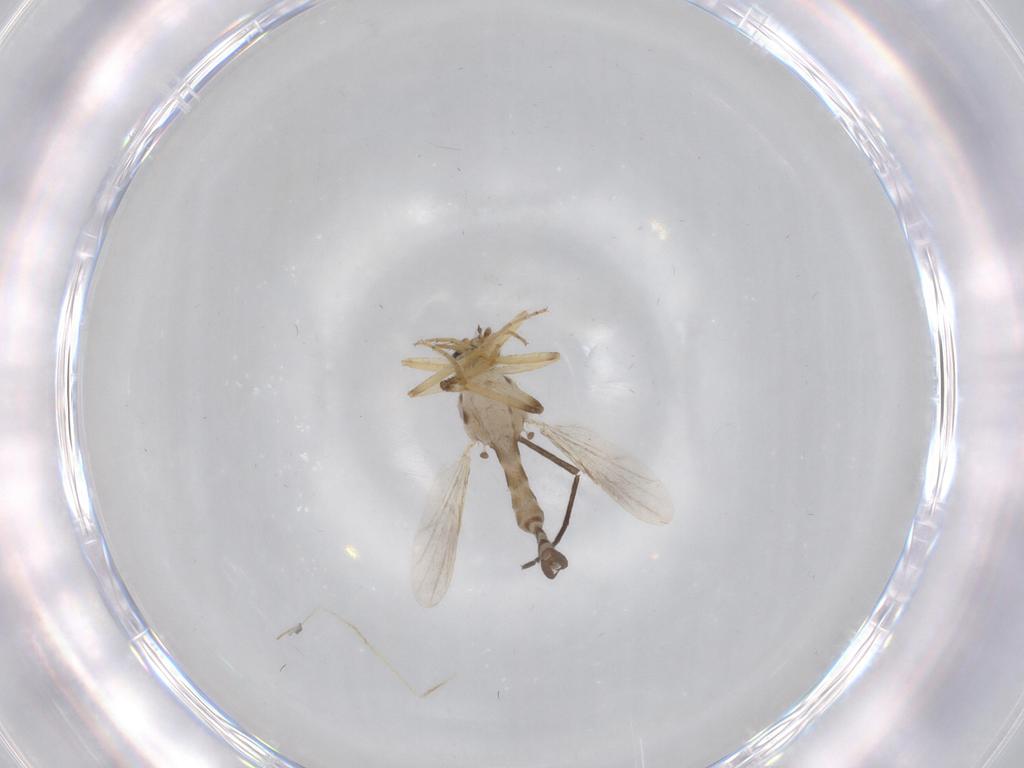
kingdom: Animalia
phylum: Arthropoda
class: Insecta
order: Diptera
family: Ceratopogonidae
